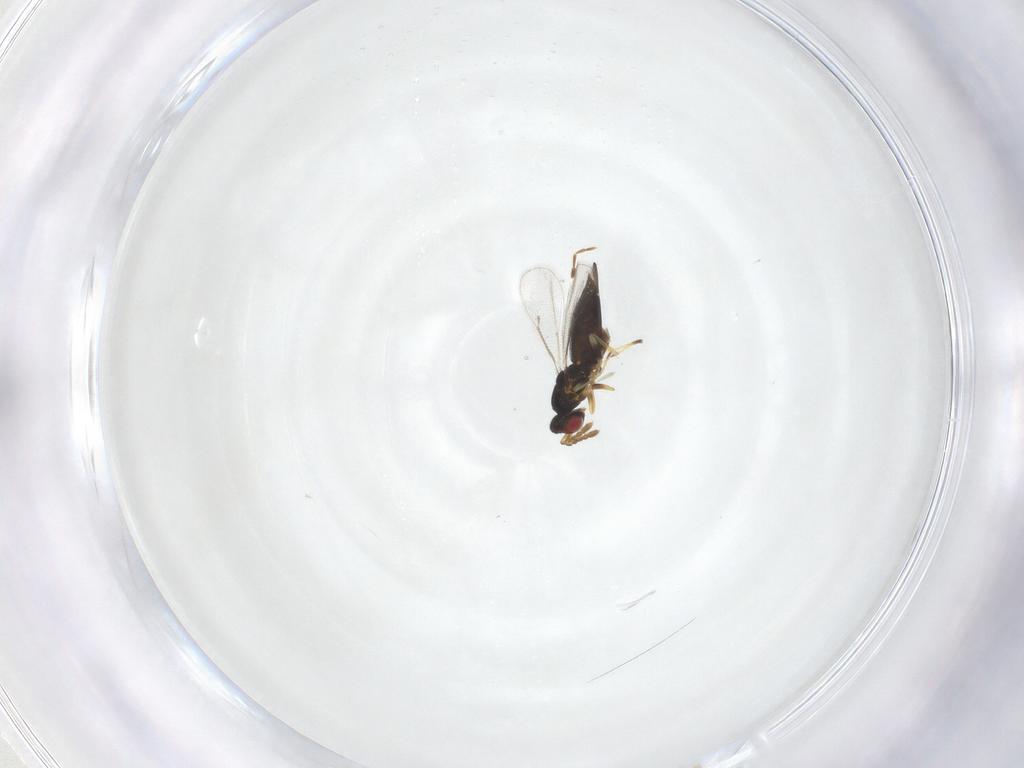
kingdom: Animalia
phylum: Arthropoda
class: Insecta
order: Hymenoptera
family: Eulophidae
